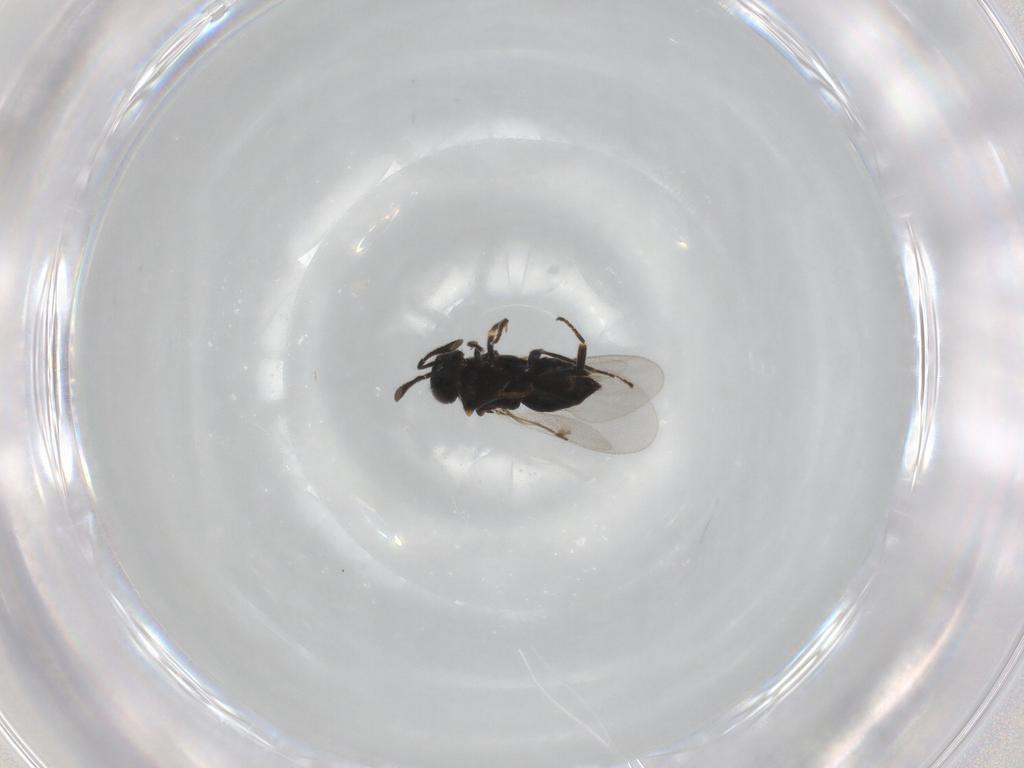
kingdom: Animalia
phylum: Arthropoda
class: Insecta
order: Hymenoptera
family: Encyrtidae
